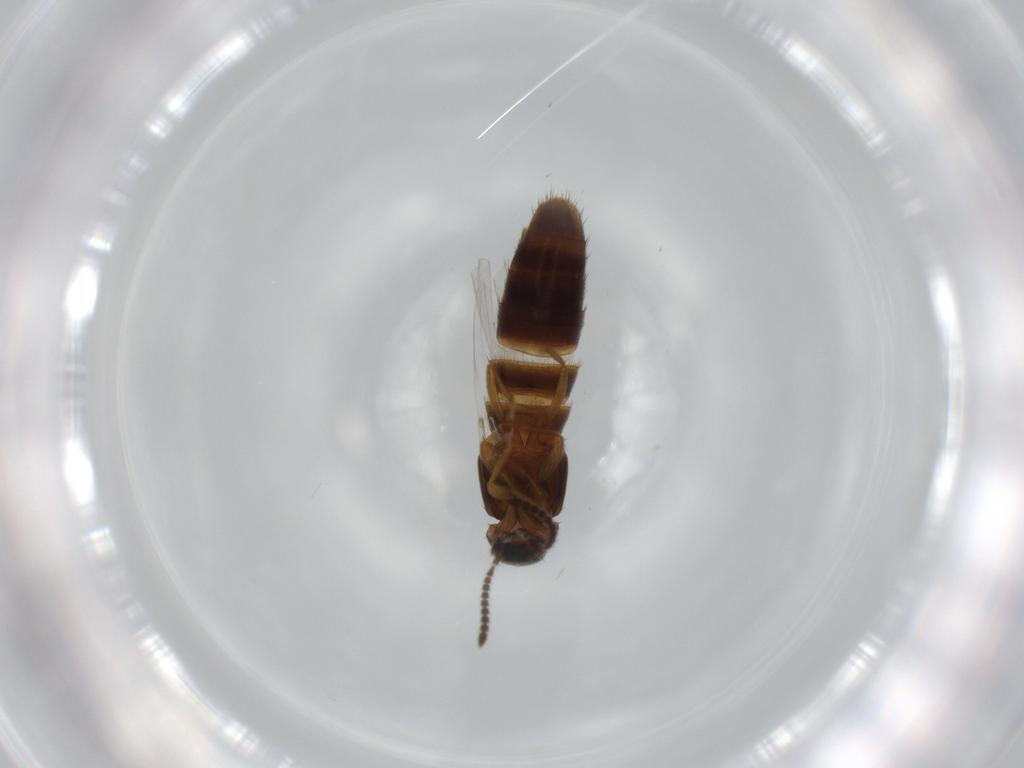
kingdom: Animalia
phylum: Arthropoda
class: Insecta
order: Coleoptera
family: Staphylinidae
